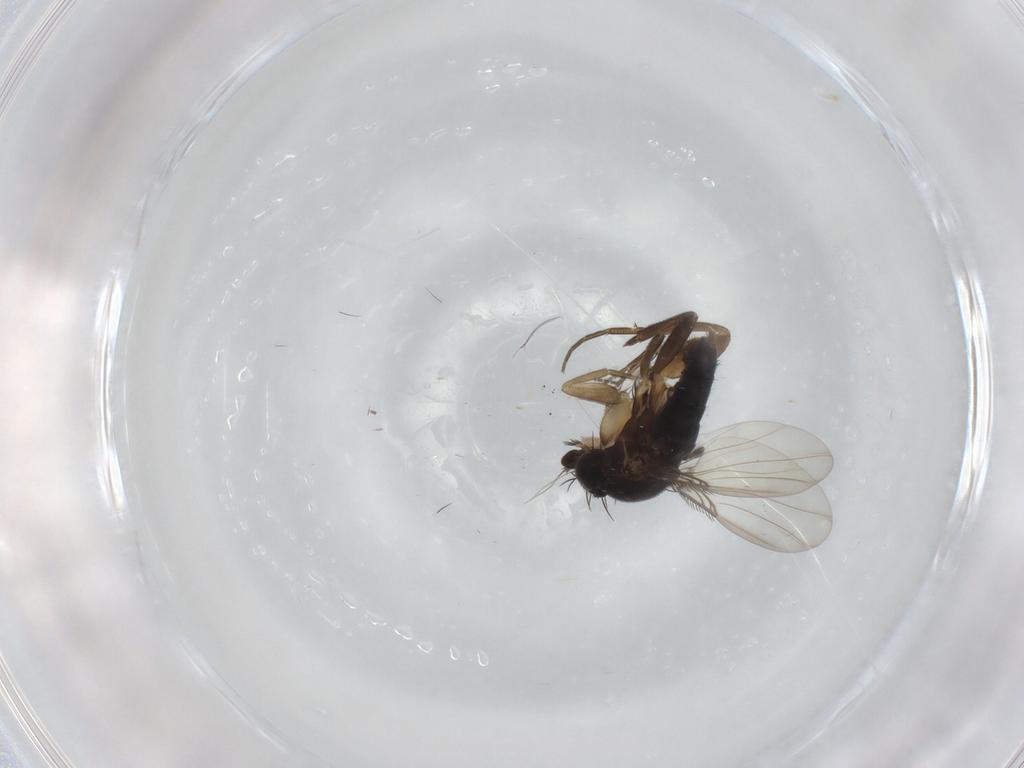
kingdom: Animalia
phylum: Arthropoda
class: Insecta
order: Diptera
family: Phoridae
